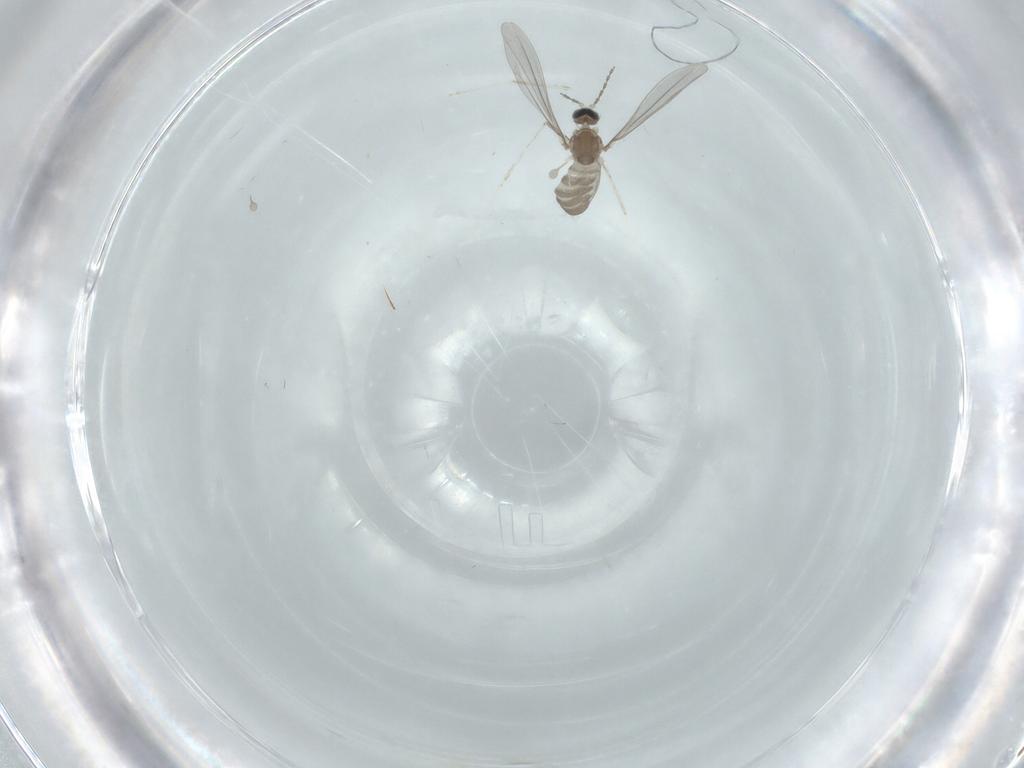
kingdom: Animalia
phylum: Arthropoda
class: Insecta
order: Diptera
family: Cecidomyiidae
